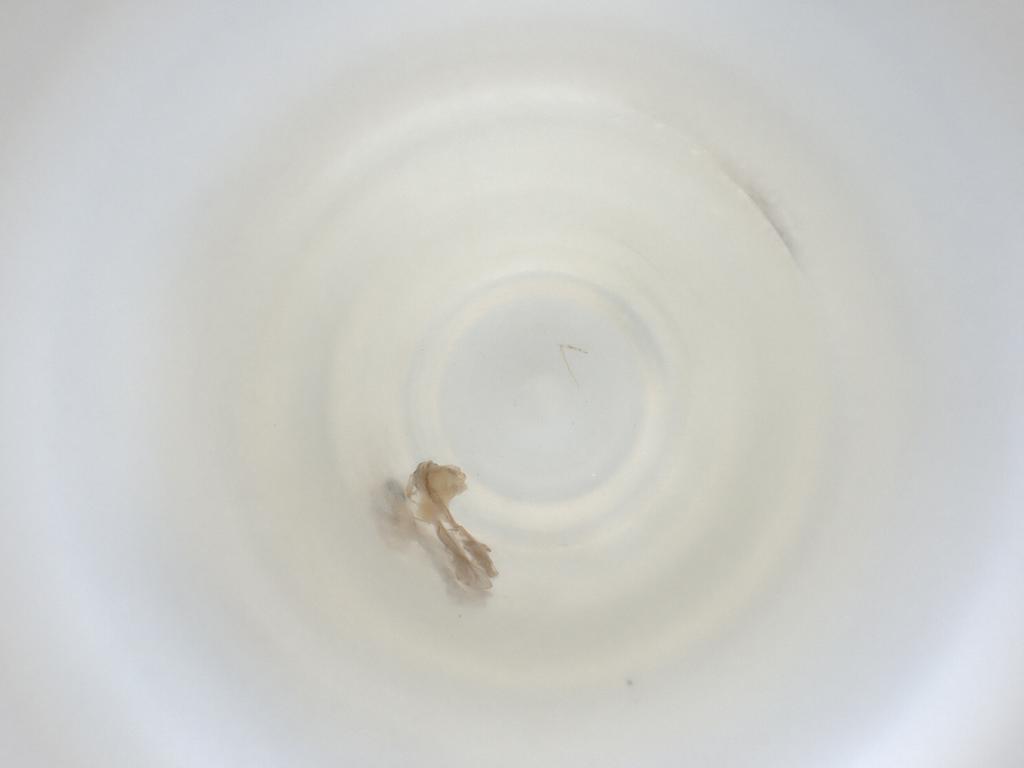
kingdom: Animalia
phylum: Arthropoda
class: Insecta
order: Diptera
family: Cecidomyiidae
